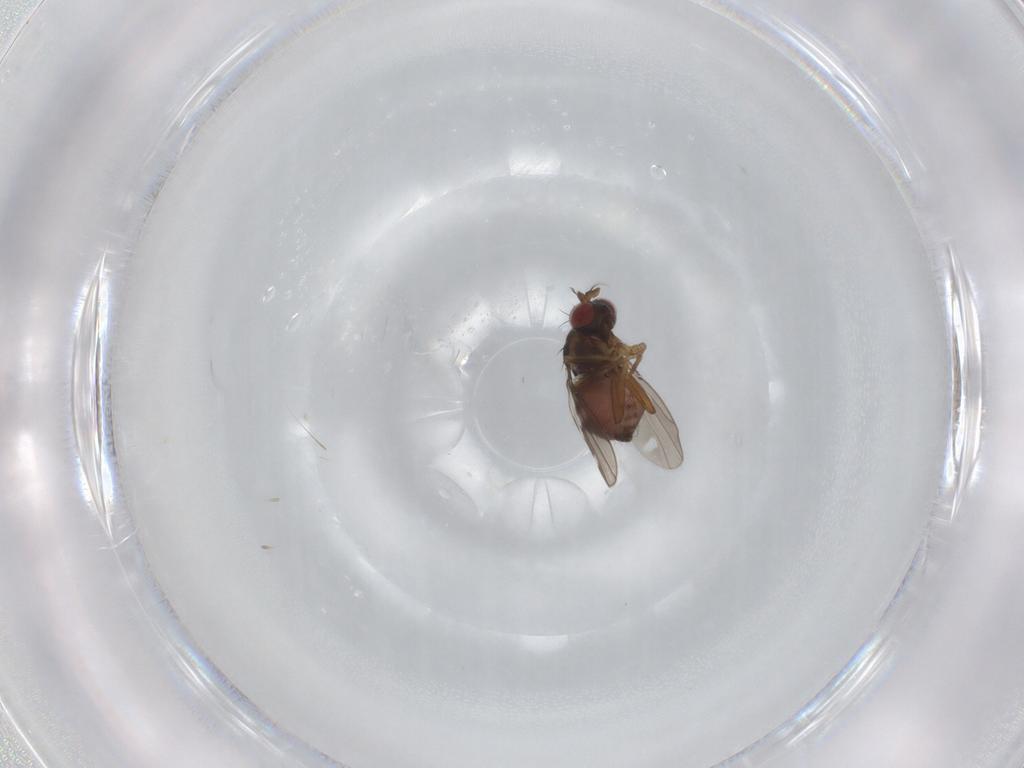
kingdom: Animalia
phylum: Arthropoda
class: Insecta
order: Diptera
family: Ephydridae
